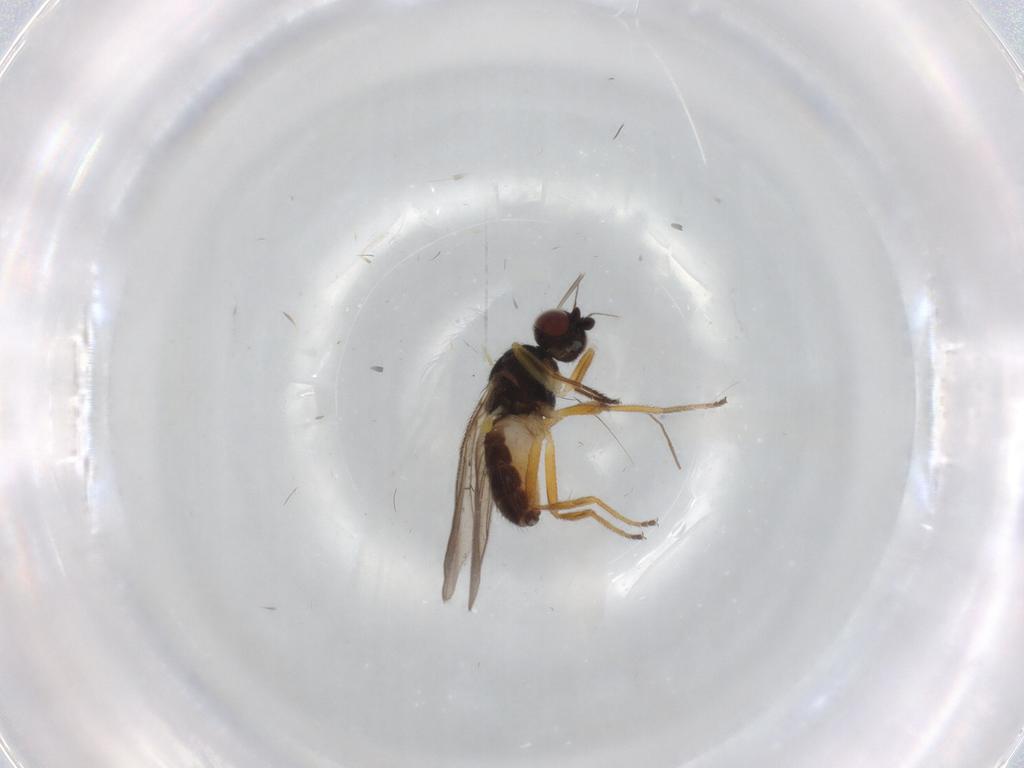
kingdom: Animalia
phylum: Arthropoda
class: Insecta
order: Diptera
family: Chloropidae
